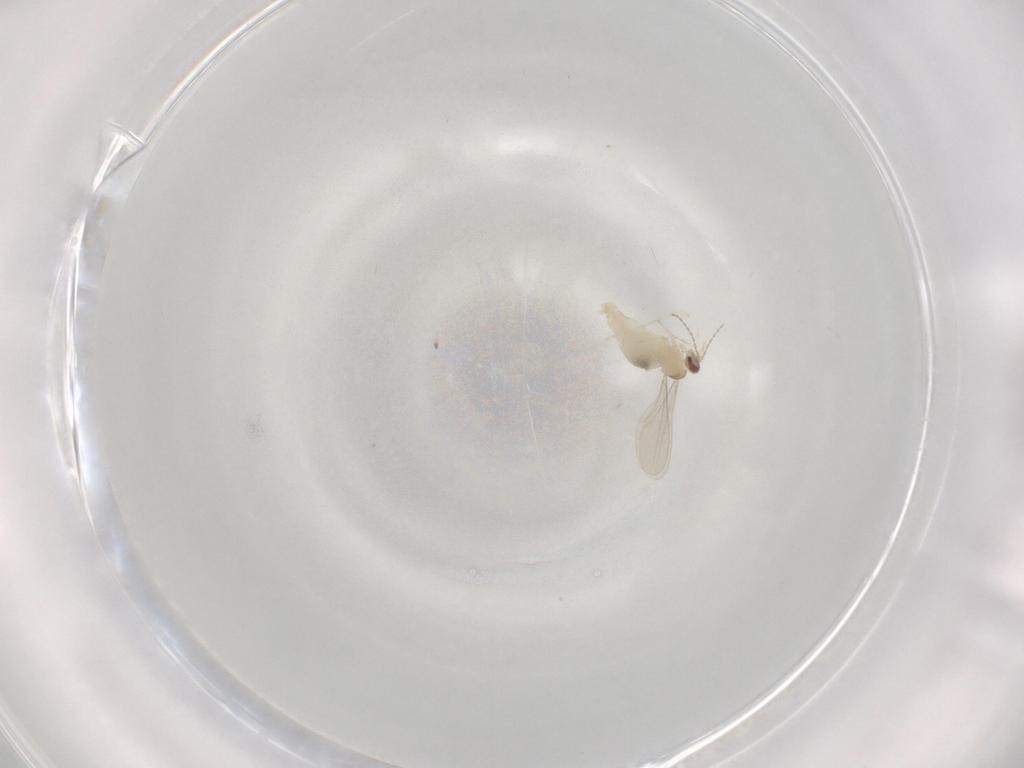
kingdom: Animalia
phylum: Arthropoda
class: Insecta
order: Diptera
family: Cecidomyiidae
